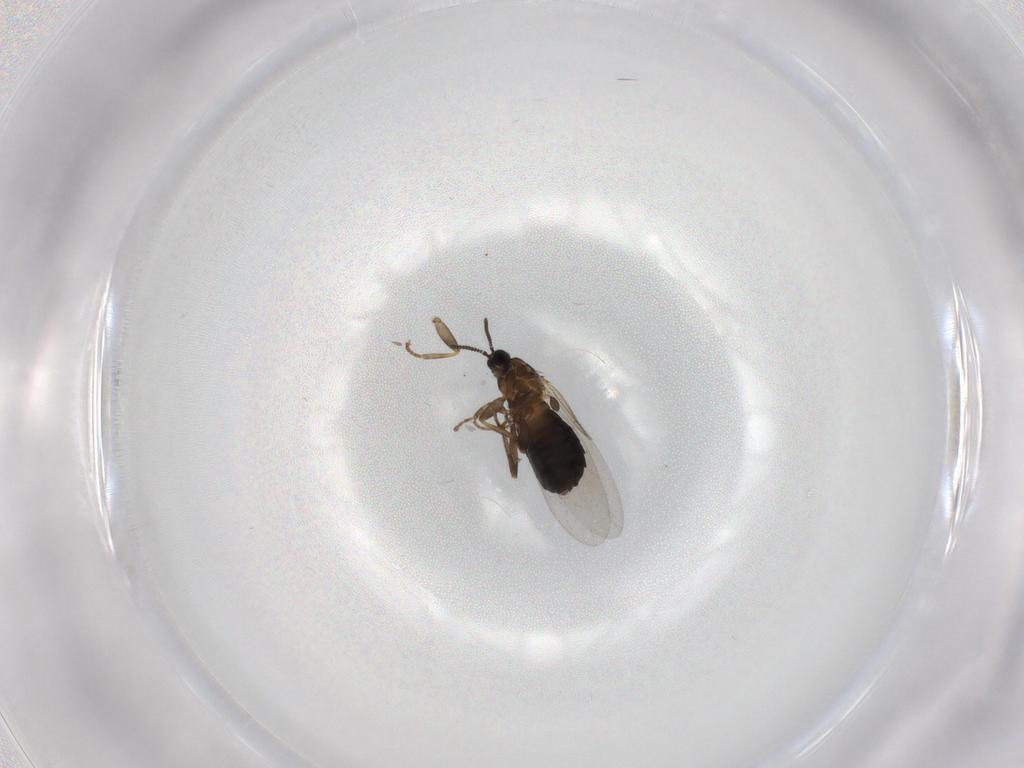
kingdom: Animalia
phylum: Arthropoda
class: Insecta
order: Diptera
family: Scatopsidae
